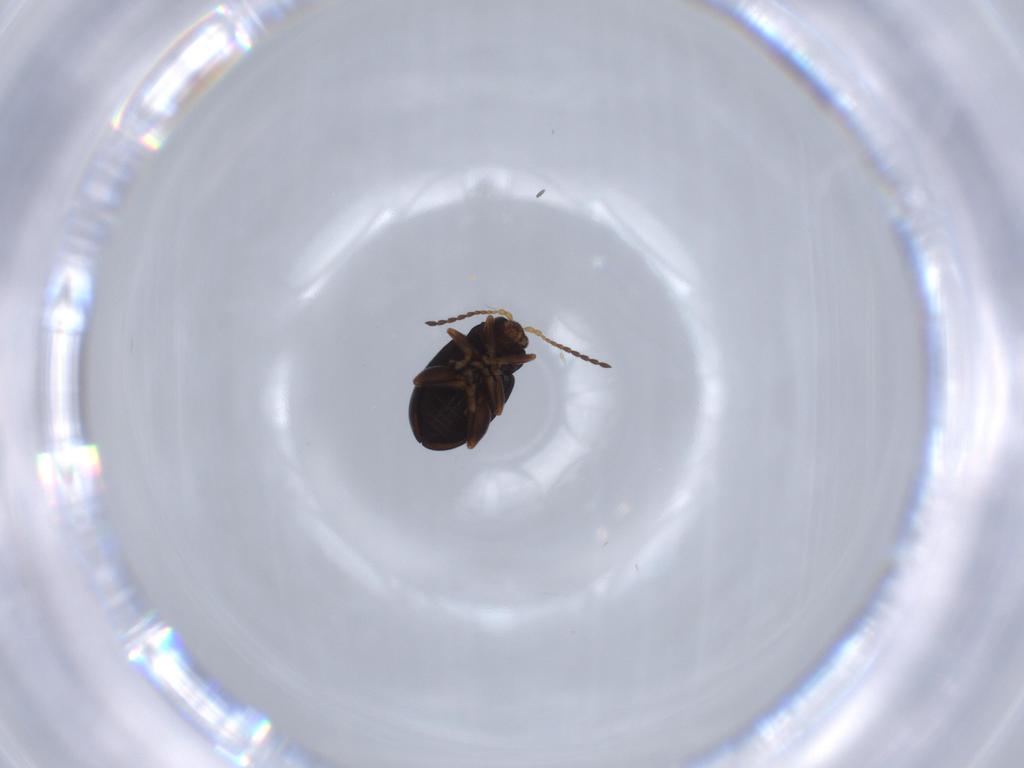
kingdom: Animalia
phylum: Arthropoda
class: Insecta
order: Coleoptera
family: Chrysomelidae
